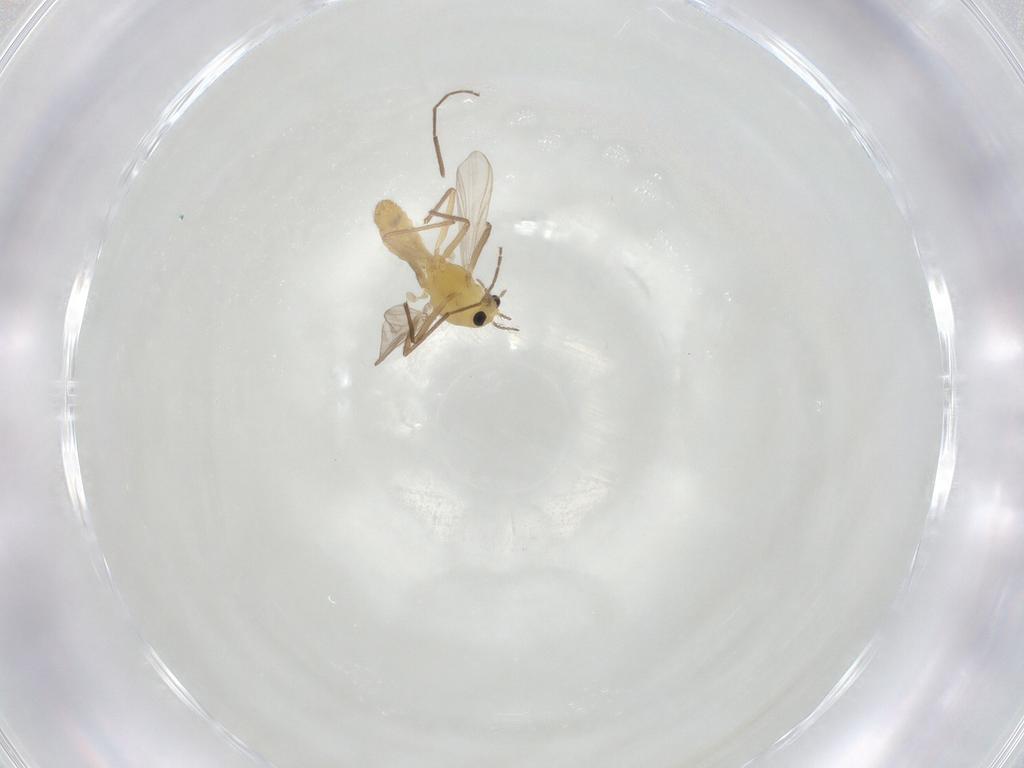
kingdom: Animalia
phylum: Arthropoda
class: Insecta
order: Diptera
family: Chironomidae
